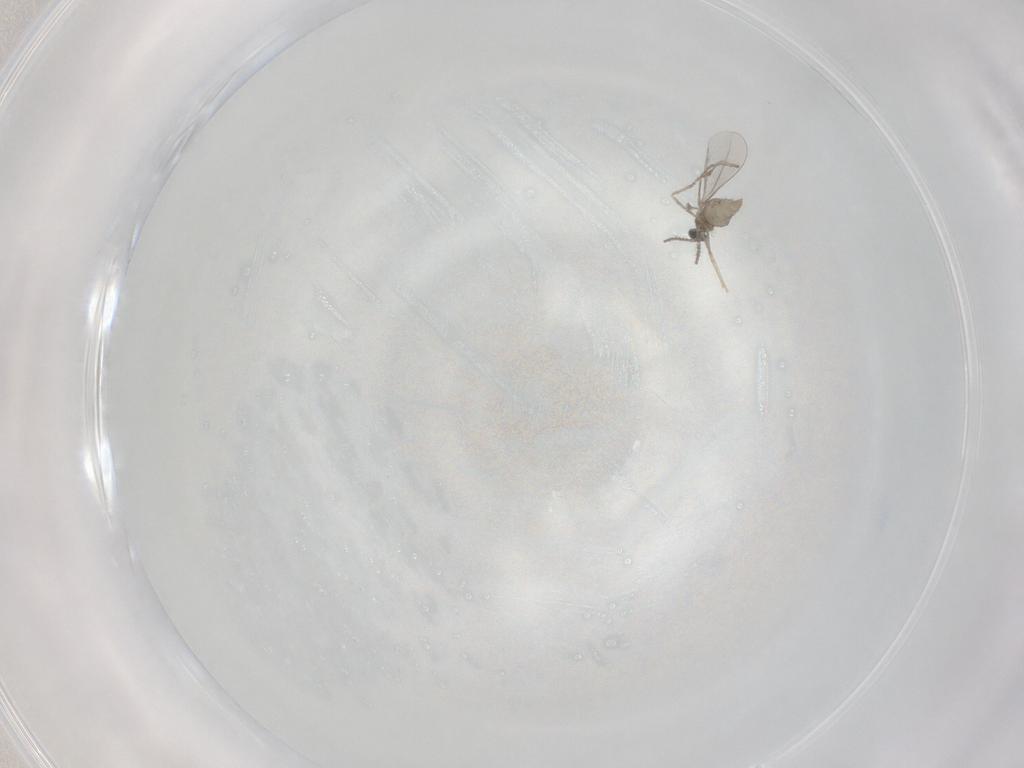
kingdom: Animalia
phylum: Arthropoda
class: Insecta
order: Diptera
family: Cecidomyiidae
